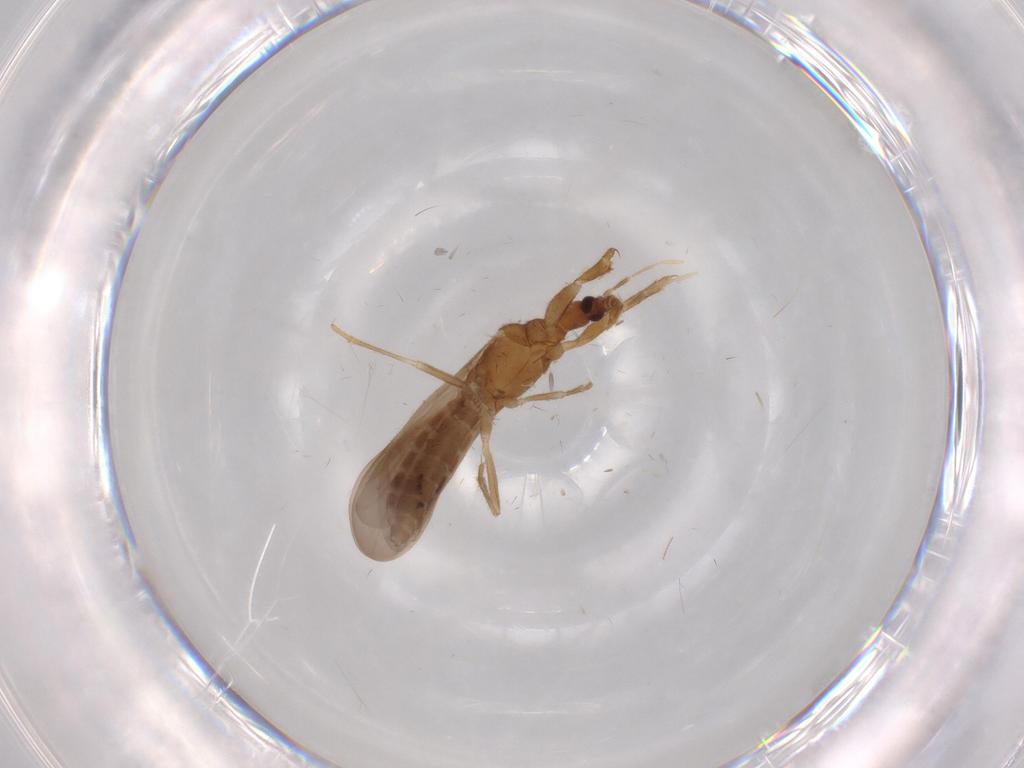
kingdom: Animalia
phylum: Arthropoda
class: Insecta
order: Hemiptera
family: Enicocephalidae
